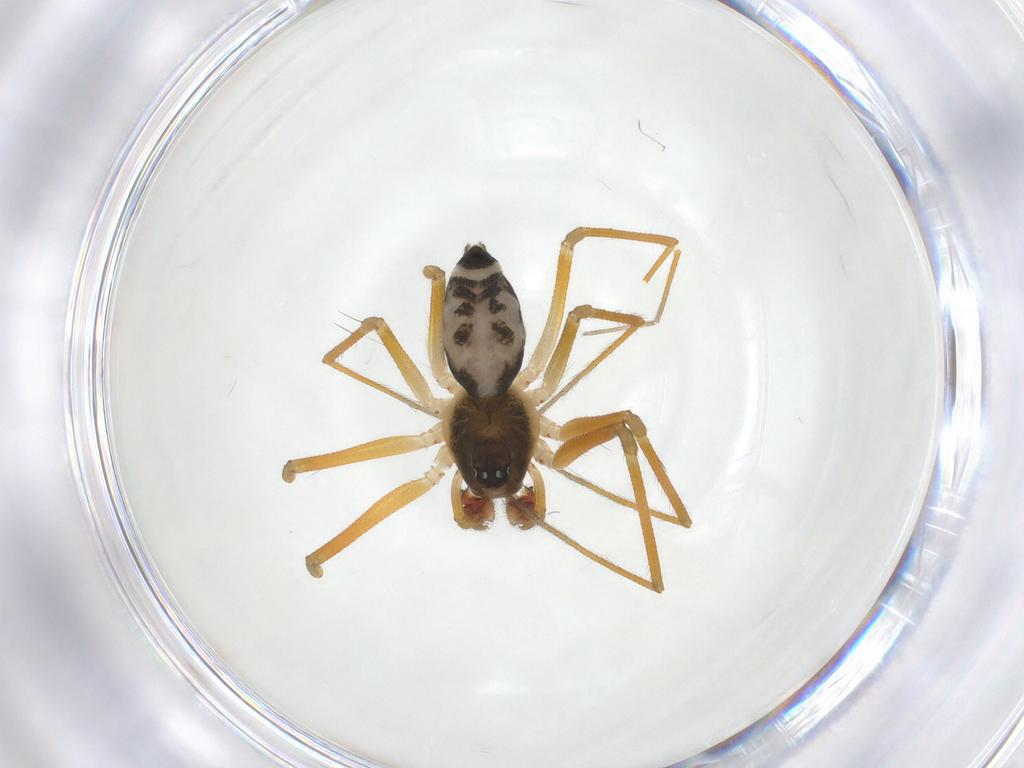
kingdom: Animalia
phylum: Arthropoda
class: Arachnida
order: Araneae
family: Linyphiidae
